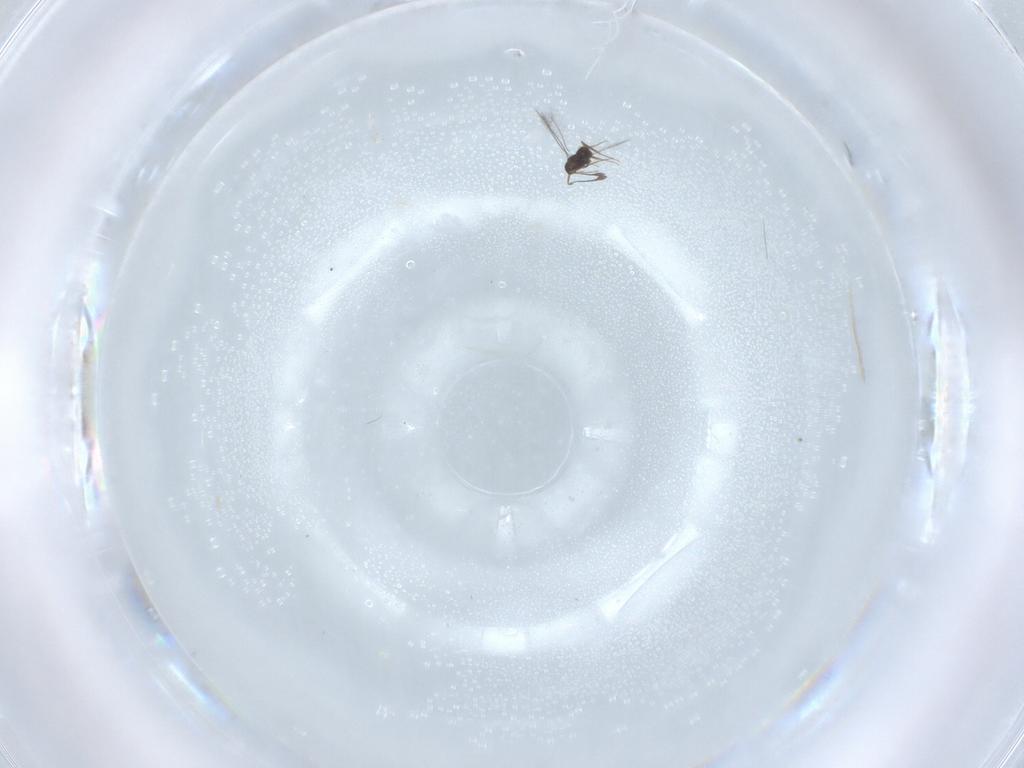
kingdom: Animalia
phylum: Arthropoda
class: Insecta
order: Hymenoptera
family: Mymaridae
